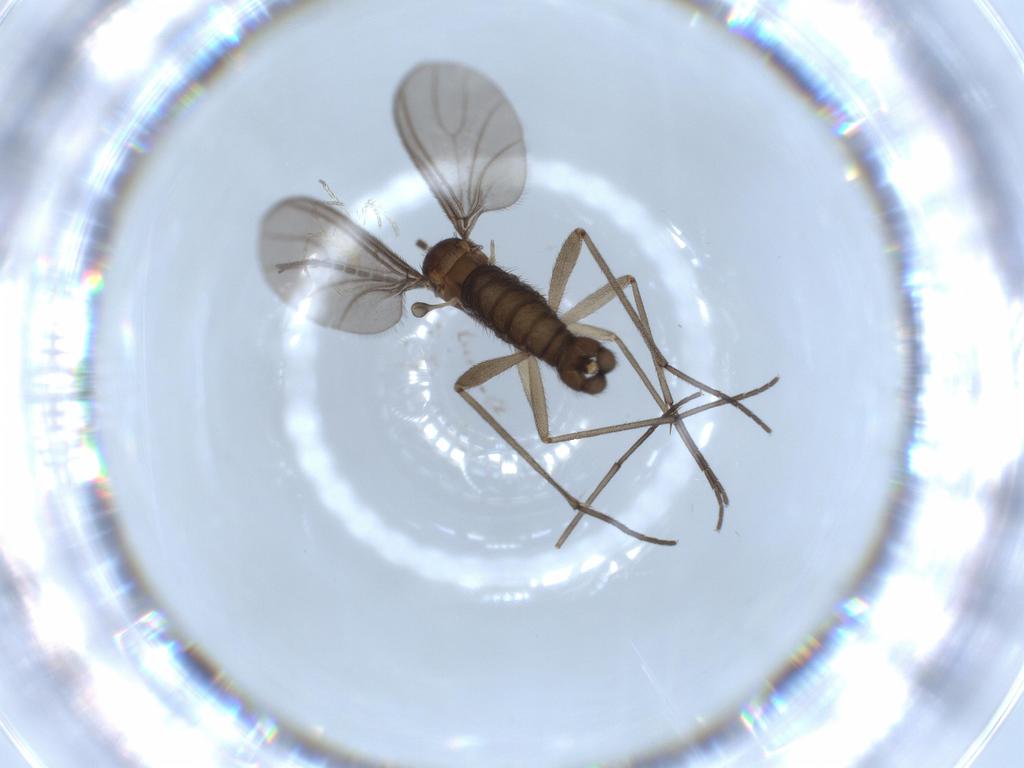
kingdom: Animalia
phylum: Arthropoda
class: Insecta
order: Diptera
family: Sciaridae
